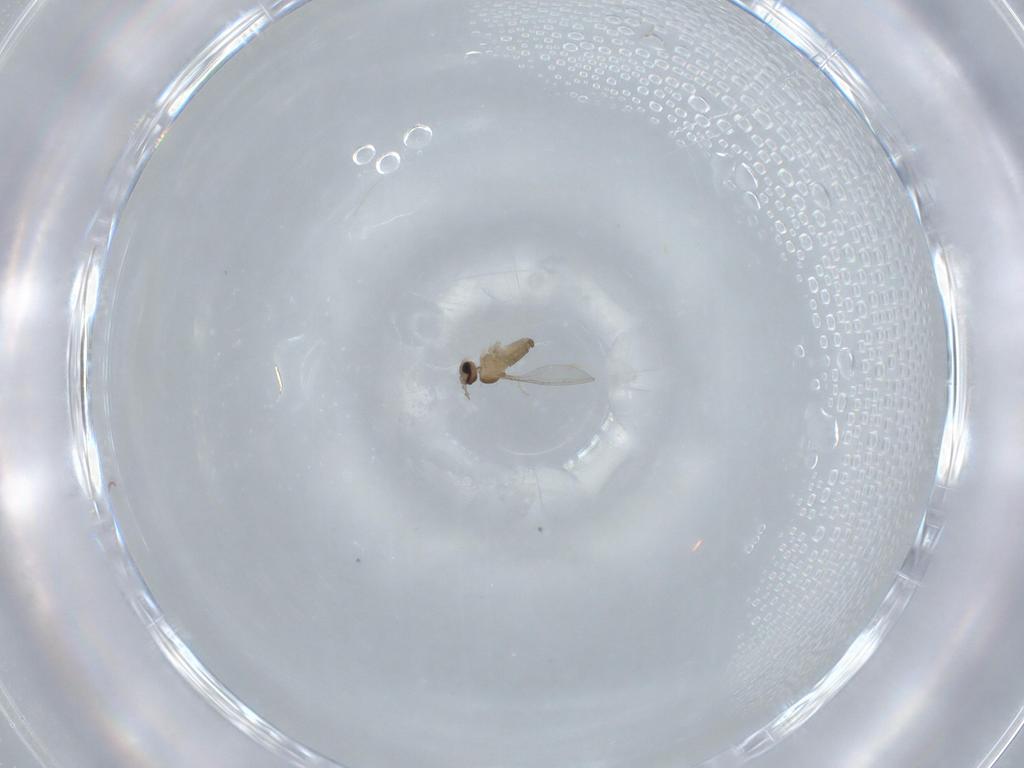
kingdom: Animalia
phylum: Arthropoda
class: Insecta
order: Diptera
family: Cecidomyiidae
